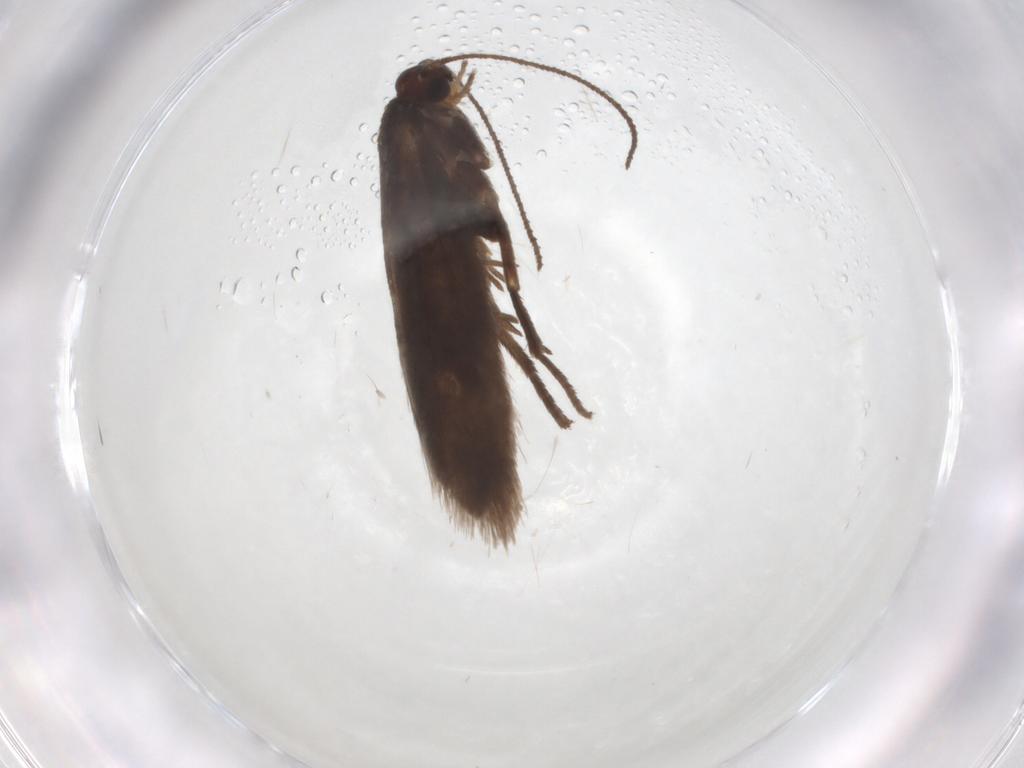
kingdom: Animalia
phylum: Arthropoda
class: Insecta
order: Lepidoptera
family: Limacodidae
